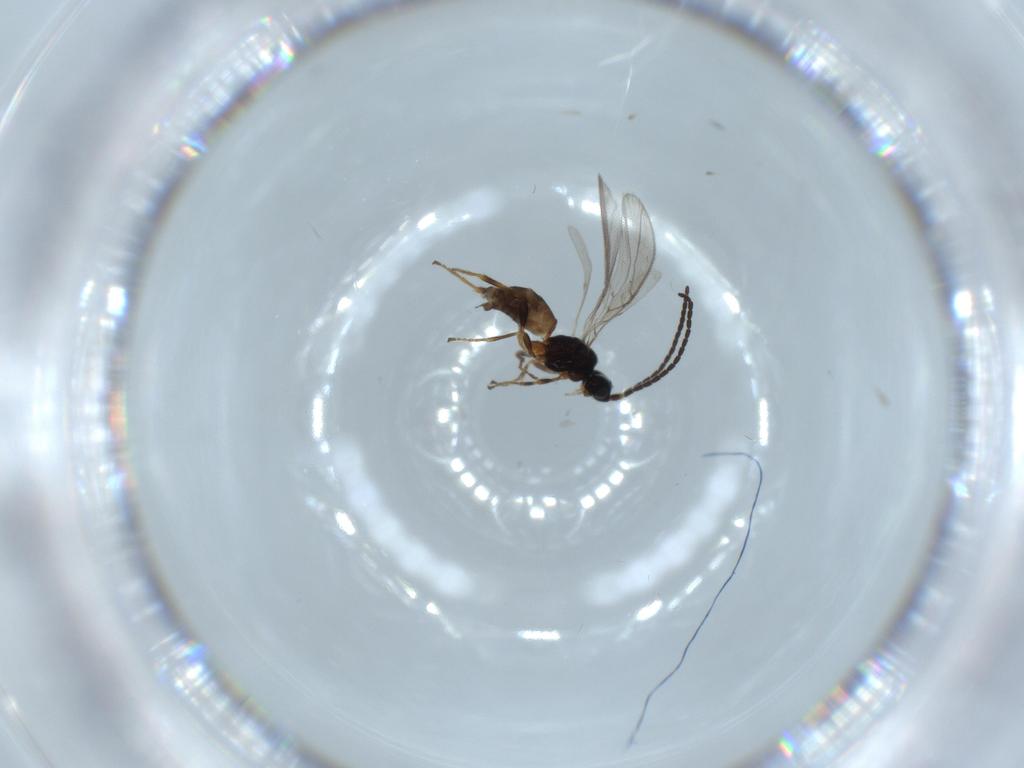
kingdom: Animalia
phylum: Arthropoda
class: Insecta
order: Hymenoptera
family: Braconidae
